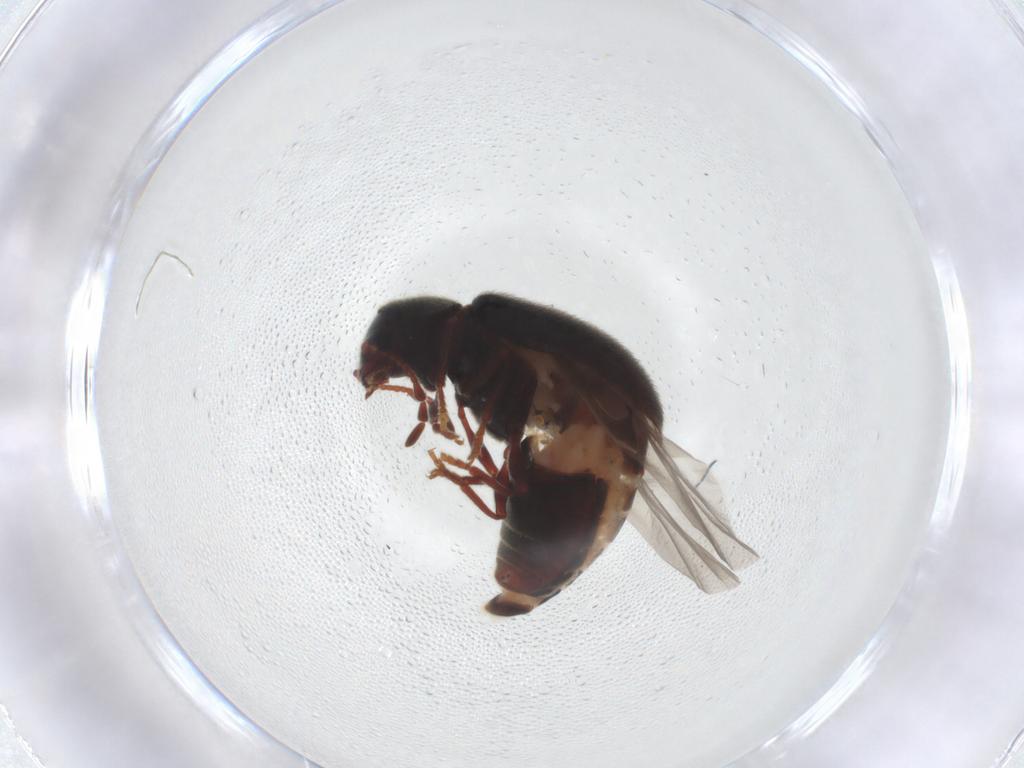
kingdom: Animalia
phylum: Arthropoda
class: Insecta
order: Coleoptera
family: Ptinidae
